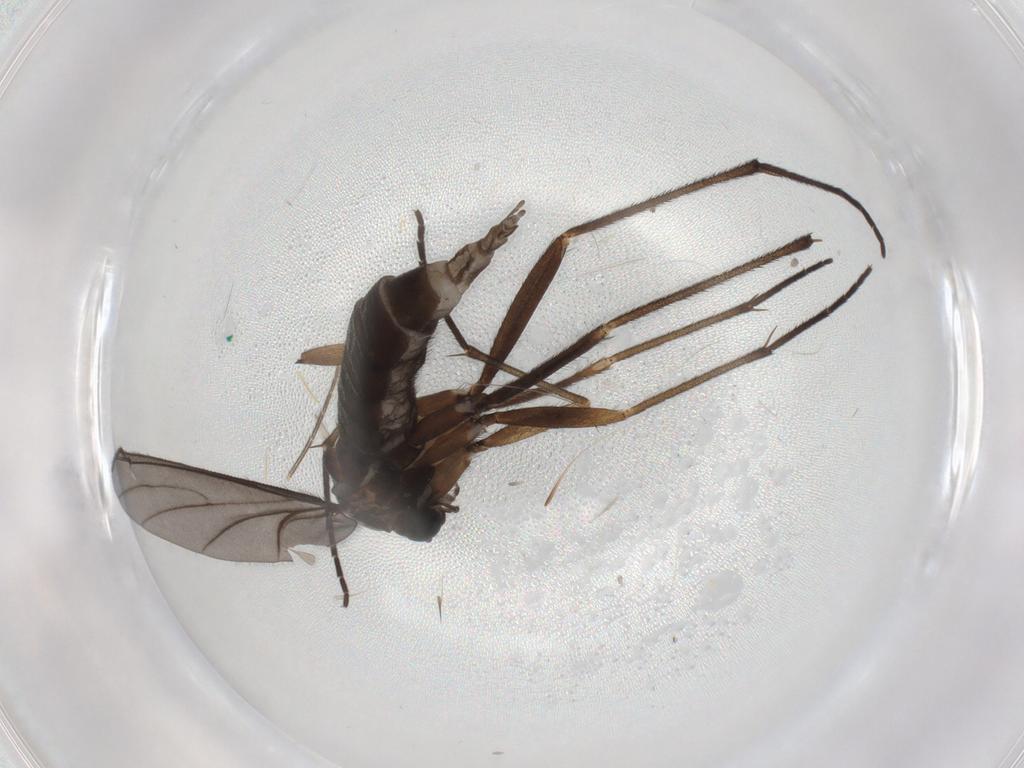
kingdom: Animalia
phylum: Arthropoda
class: Insecta
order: Diptera
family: Sciaridae
